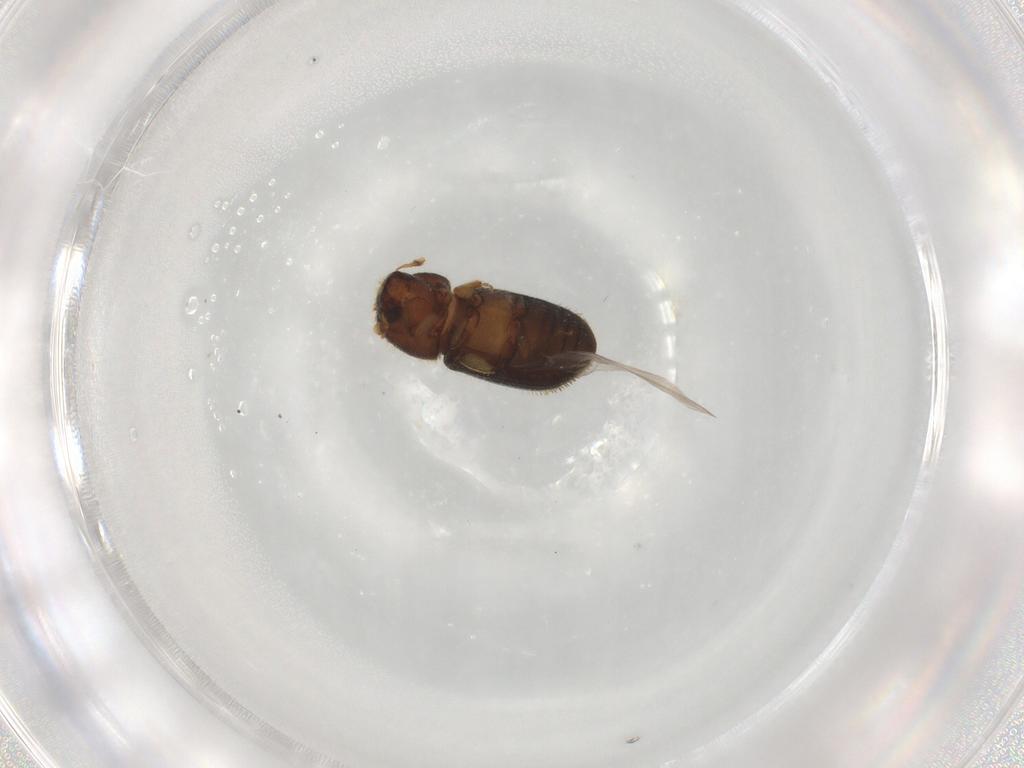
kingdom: Animalia
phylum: Arthropoda
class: Insecta
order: Coleoptera
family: Curculionidae
